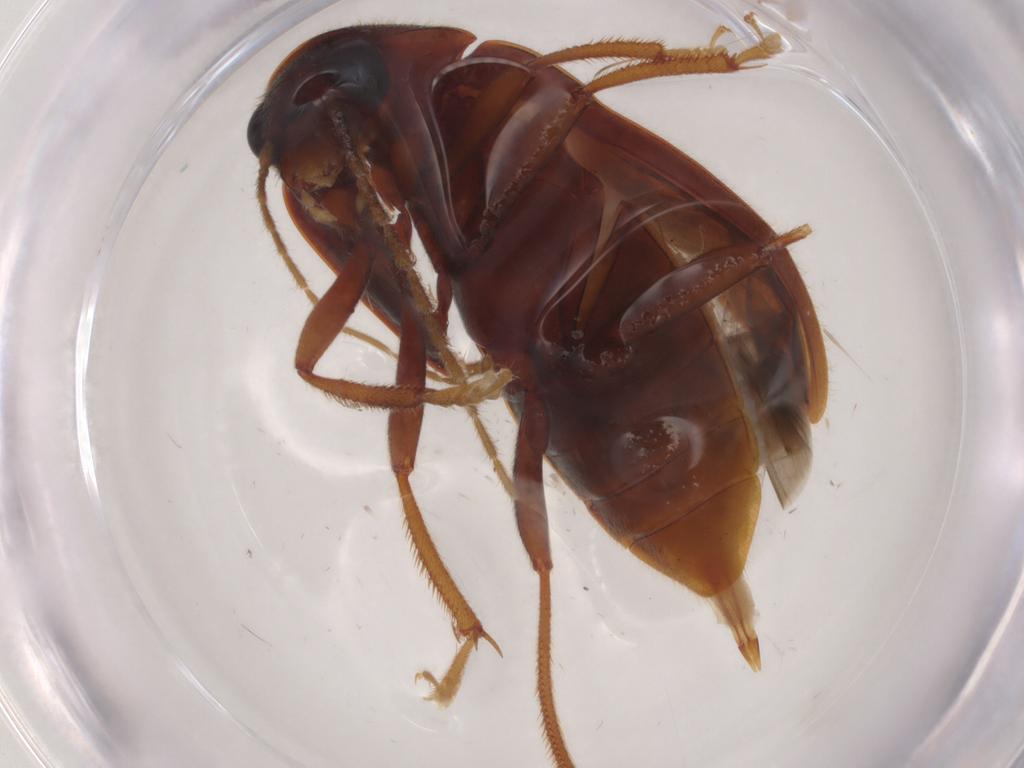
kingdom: Animalia
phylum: Arthropoda
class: Insecta
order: Coleoptera
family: Ptilodactylidae
